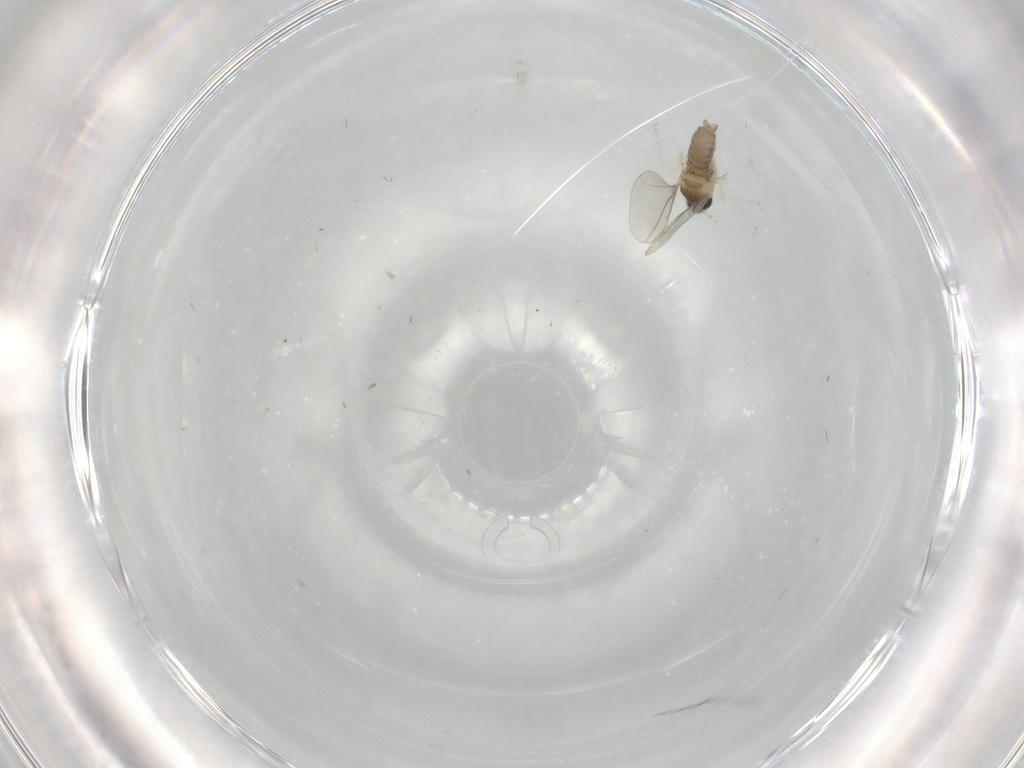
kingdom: Animalia
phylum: Arthropoda
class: Insecta
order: Diptera
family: Cecidomyiidae
